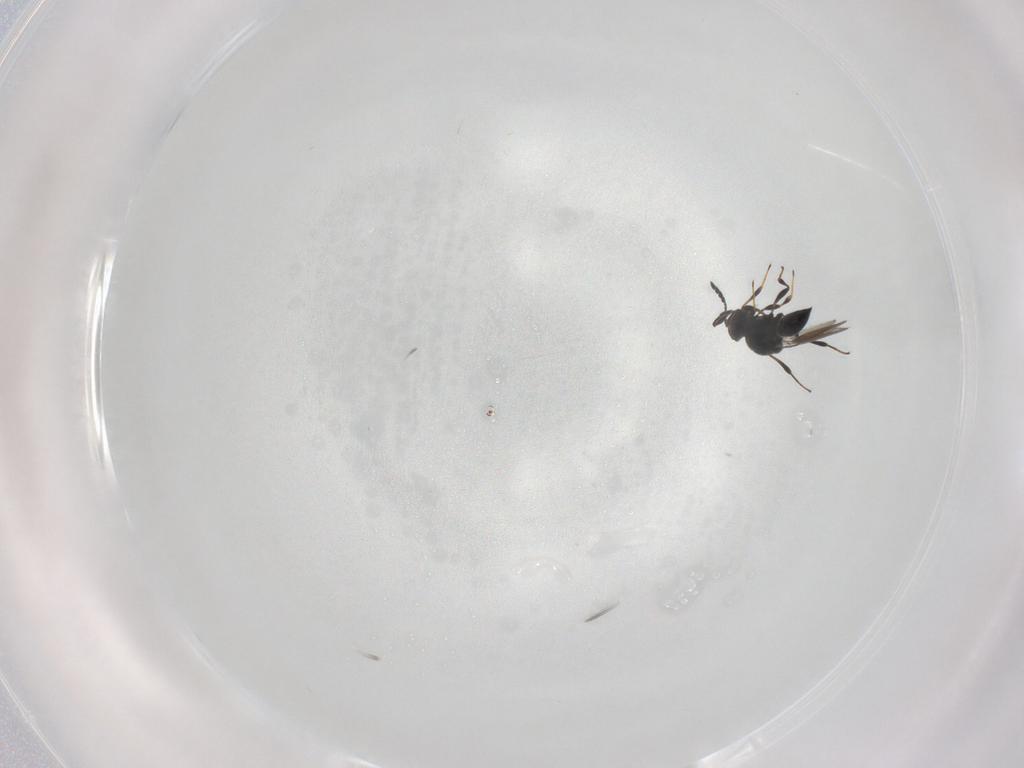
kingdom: Animalia
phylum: Arthropoda
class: Insecta
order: Hymenoptera
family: Platygastridae
